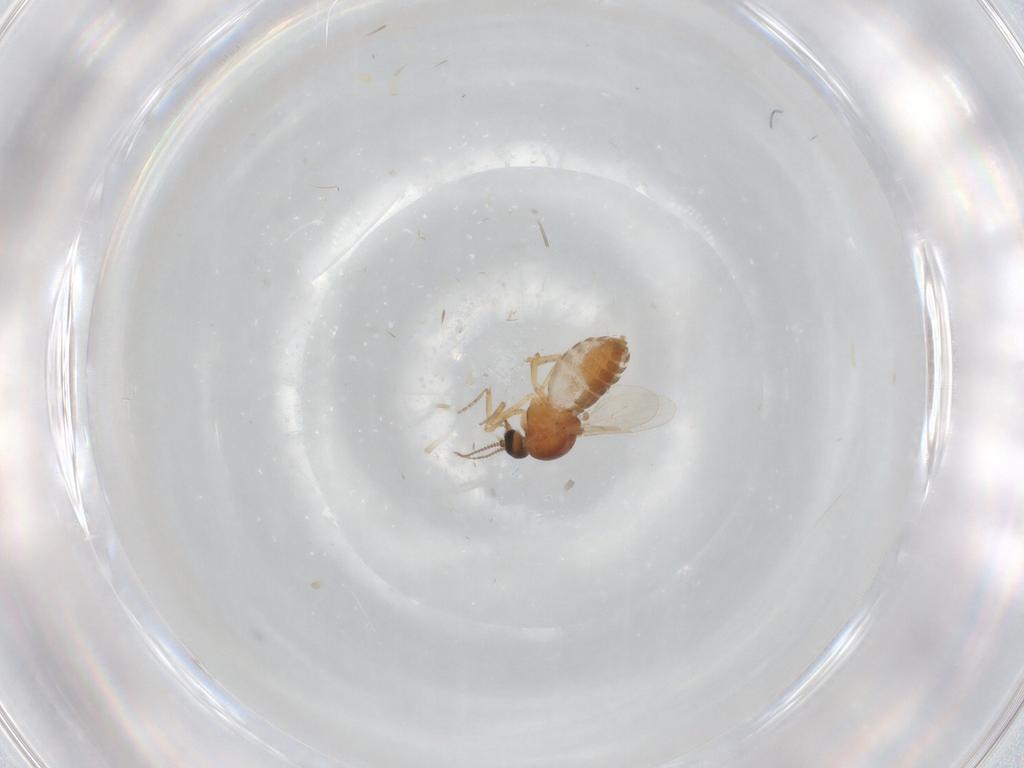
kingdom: Animalia
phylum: Arthropoda
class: Insecta
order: Diptera
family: Ceratopogonidae
